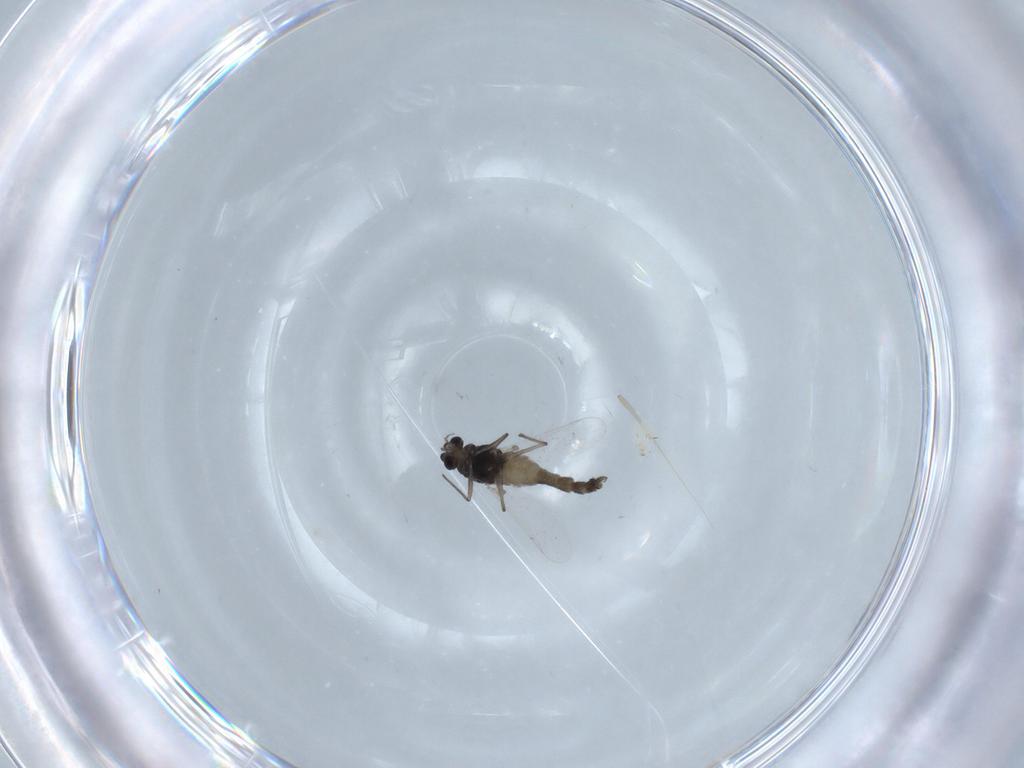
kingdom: Animalia
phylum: Arthropoda
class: Insecta
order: Diptera
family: Chironomidae
